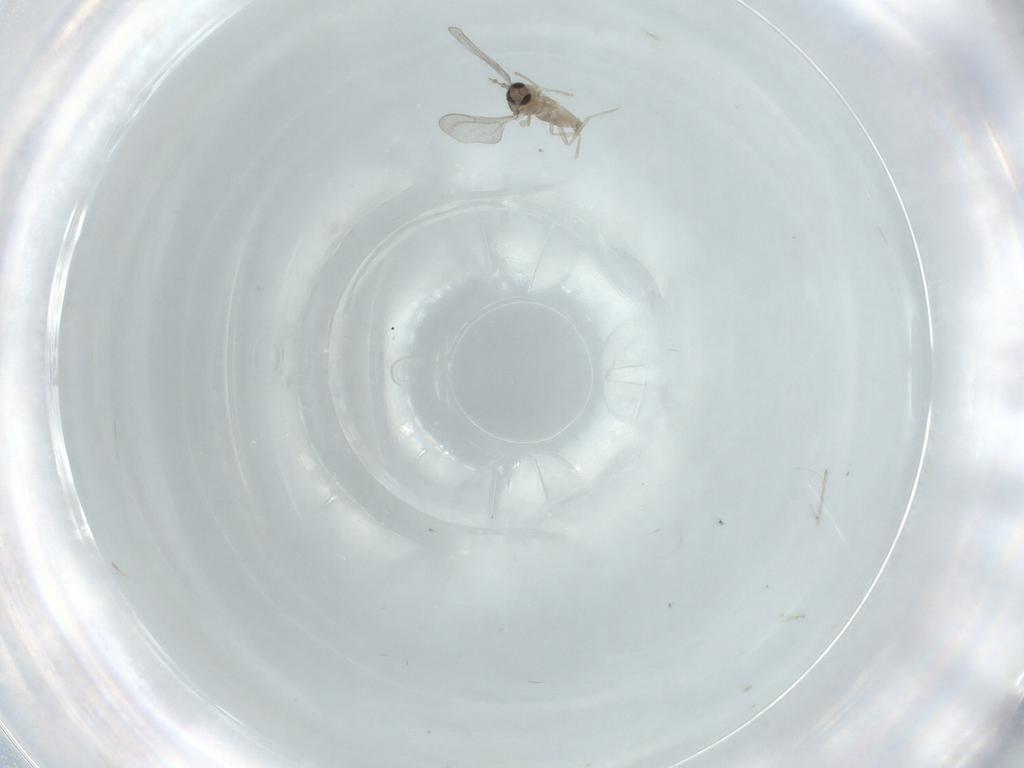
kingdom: Animalia
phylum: Arthropoda
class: Insecta
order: Diptera
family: Cecidomyiidae
